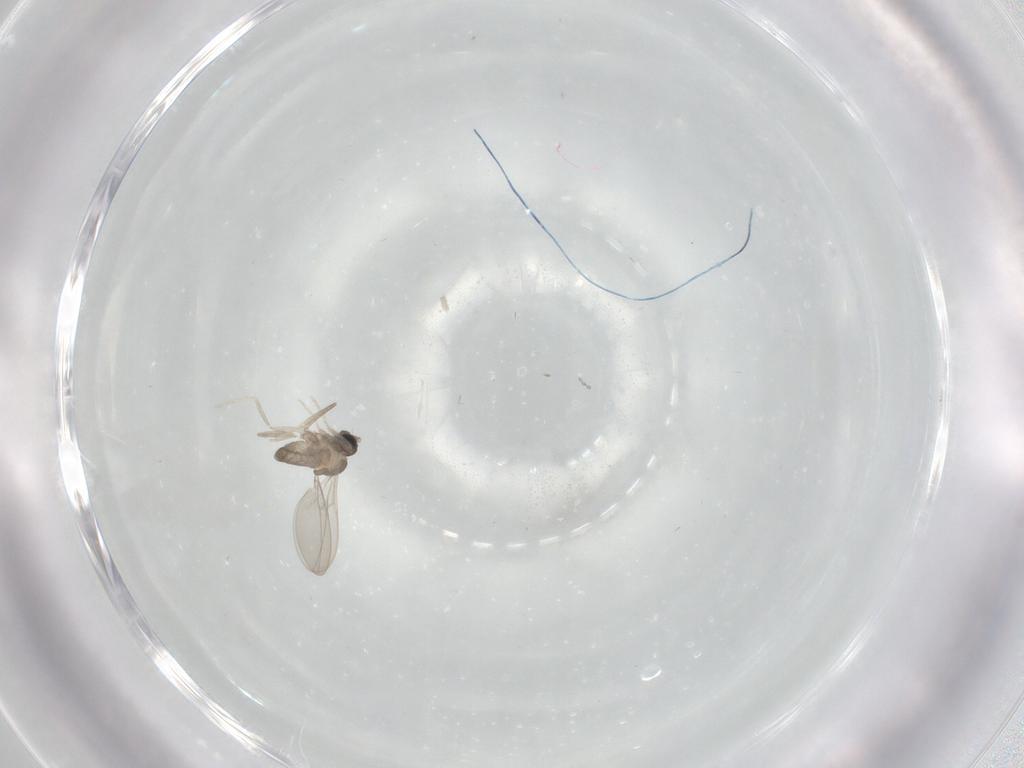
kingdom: Animalia
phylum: Arthropoda
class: Insecta
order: Diptera
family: Cecidomyiidae
